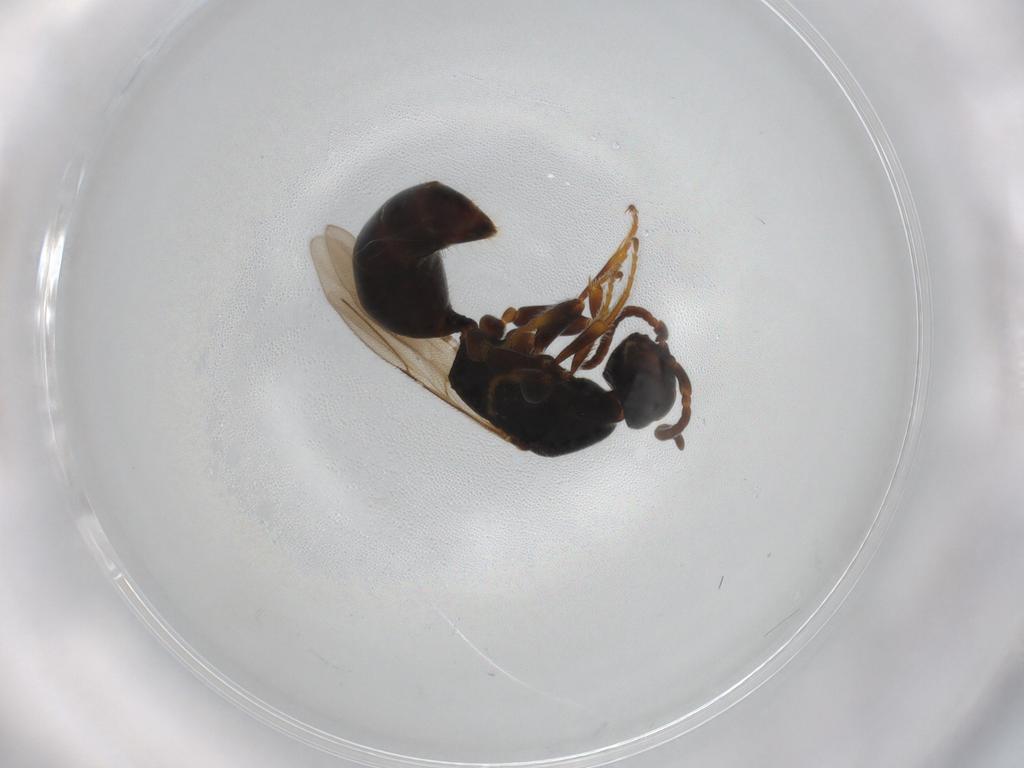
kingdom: Animalia
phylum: Arthropoda
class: Insecta
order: Hymenoptera
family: Bethylidae
